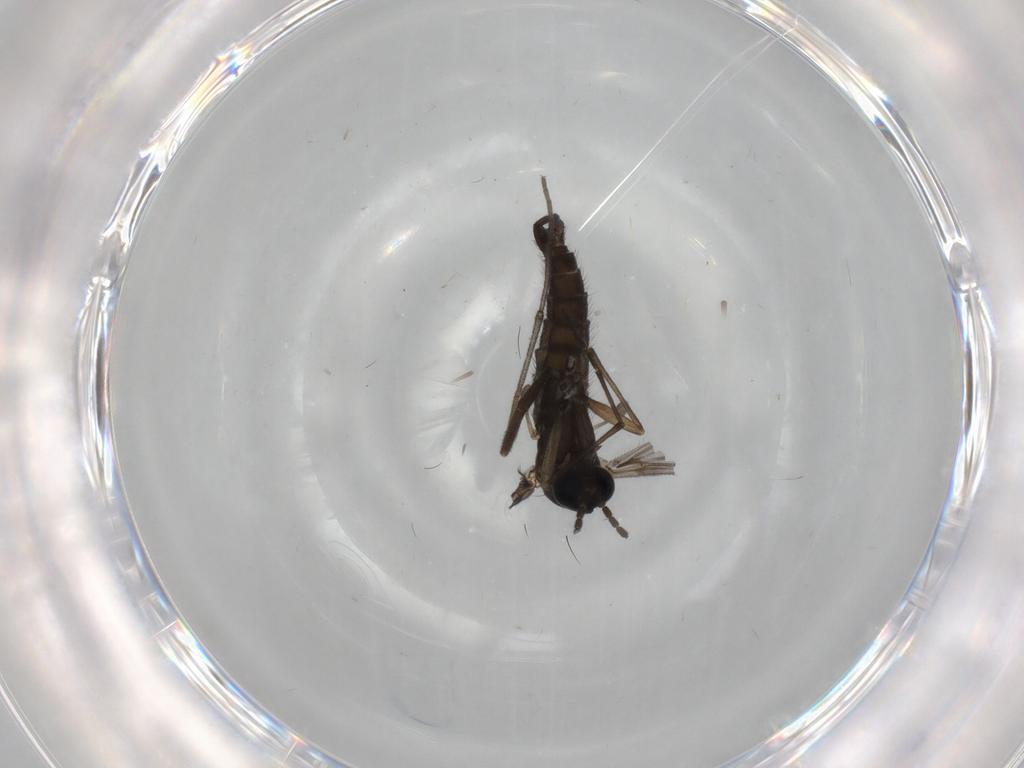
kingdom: Animalia
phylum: Arthropoda
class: Insecta
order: Diptera
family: Sciaridae
